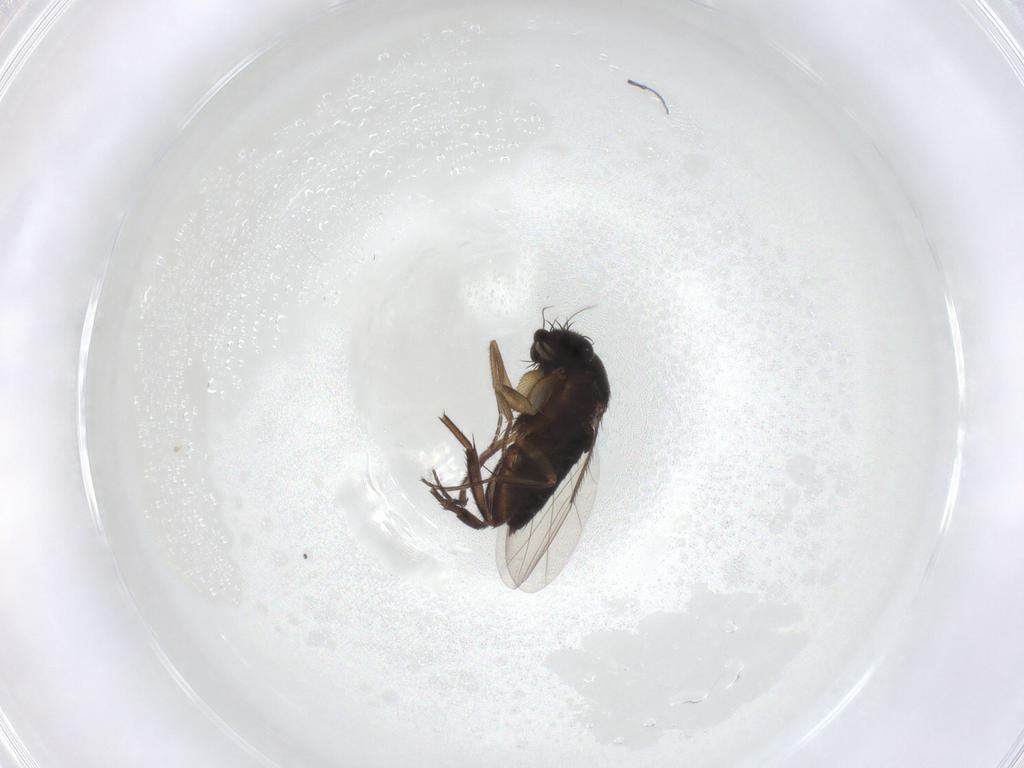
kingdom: Animalia
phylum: Arthropoda
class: Insecta
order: Diptera
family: Phoridae
